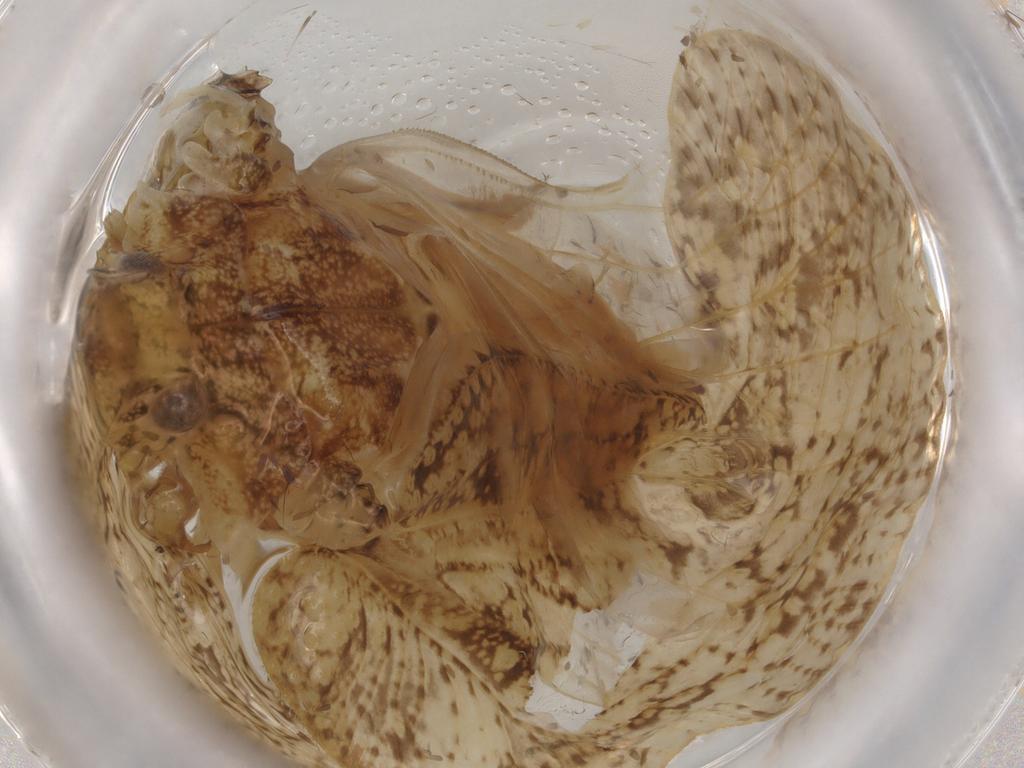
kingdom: Animalia
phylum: Arthropoda
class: Insecta
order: Hemiptera
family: Flatidae
